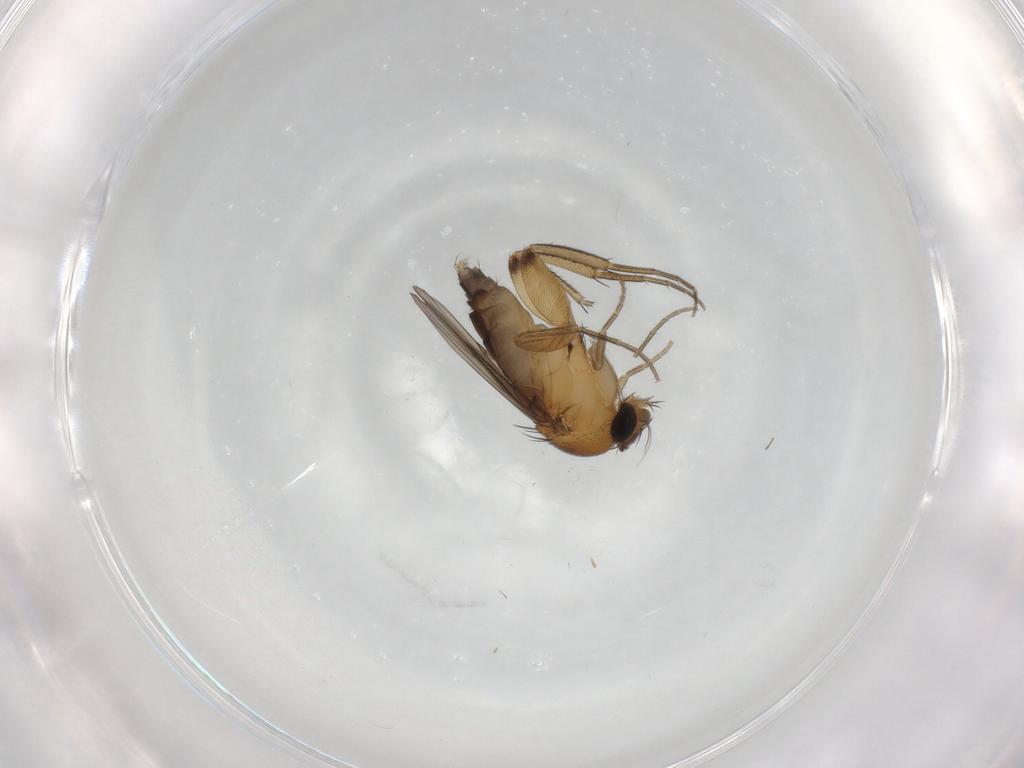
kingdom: Animalia
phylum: Arthropoda
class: Insecta
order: Diptera
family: Phoridae
